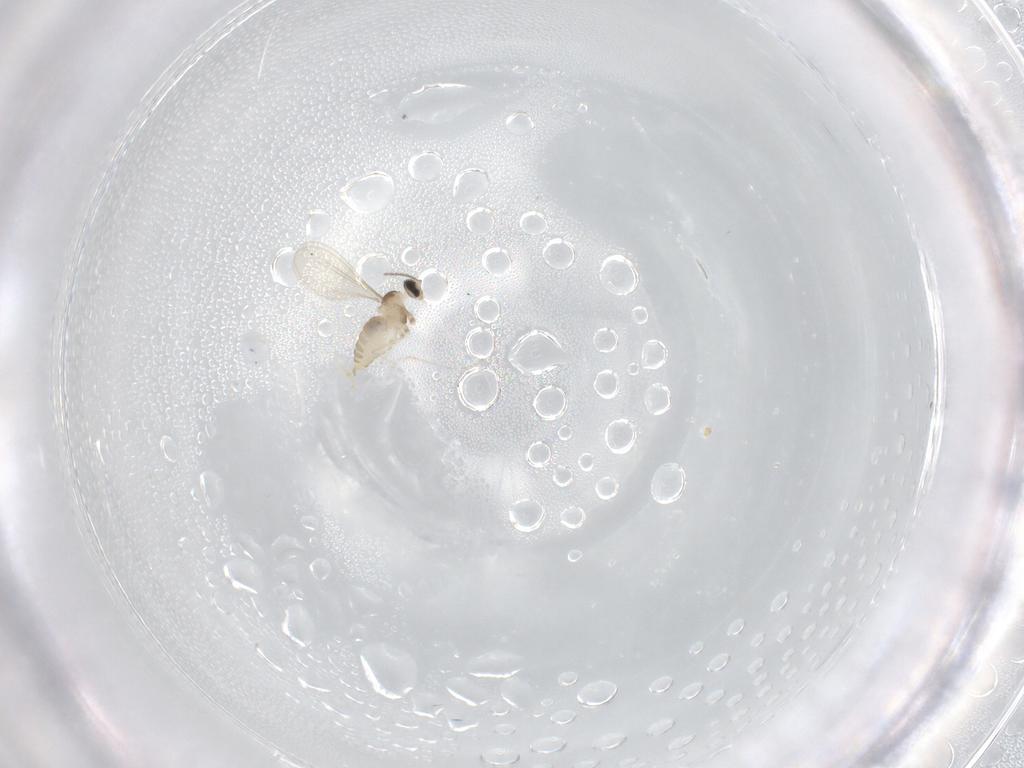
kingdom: Animalia
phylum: Arthropoda
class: Insecta
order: Diptera
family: Cecidomyiidae
